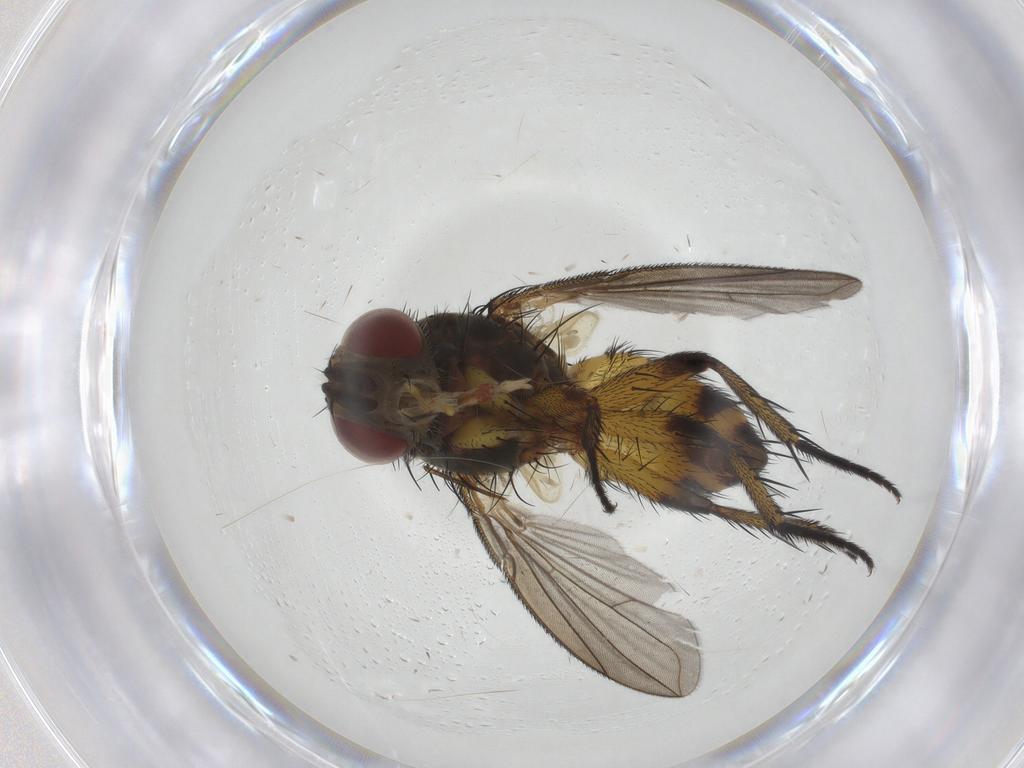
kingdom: Animalia
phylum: Arthropoda
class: Insecta
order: Diptera
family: Tachinidae
